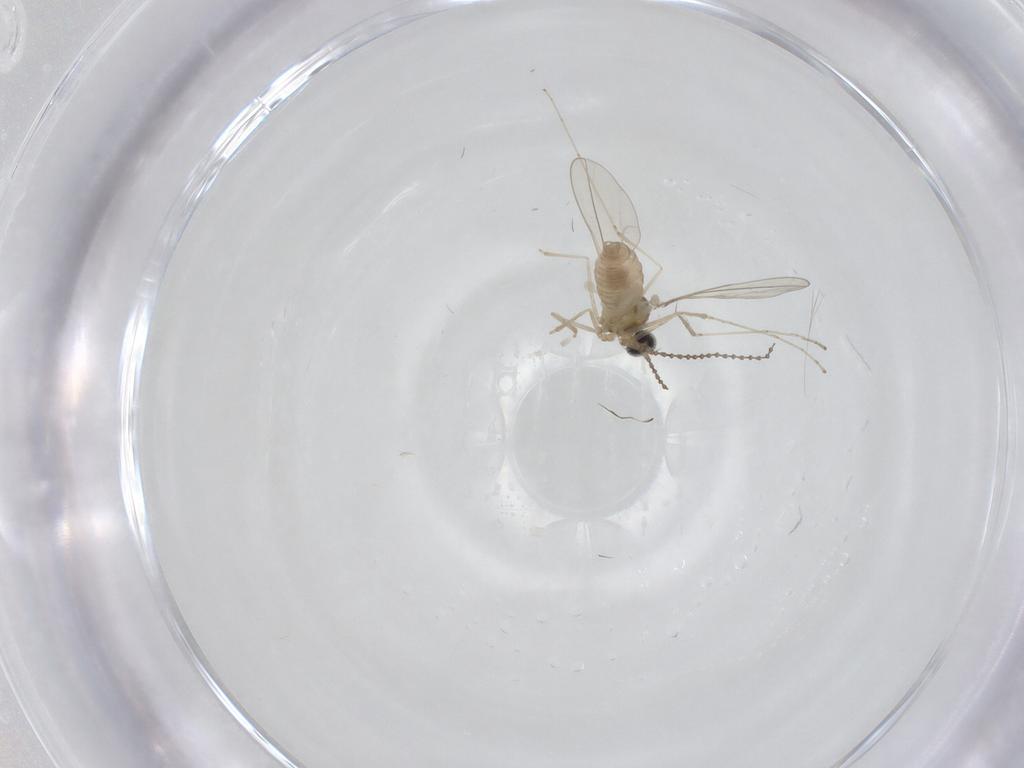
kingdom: Animalia
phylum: Arthropoda
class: Insecta
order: Diptera
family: Cecidomyiidae
